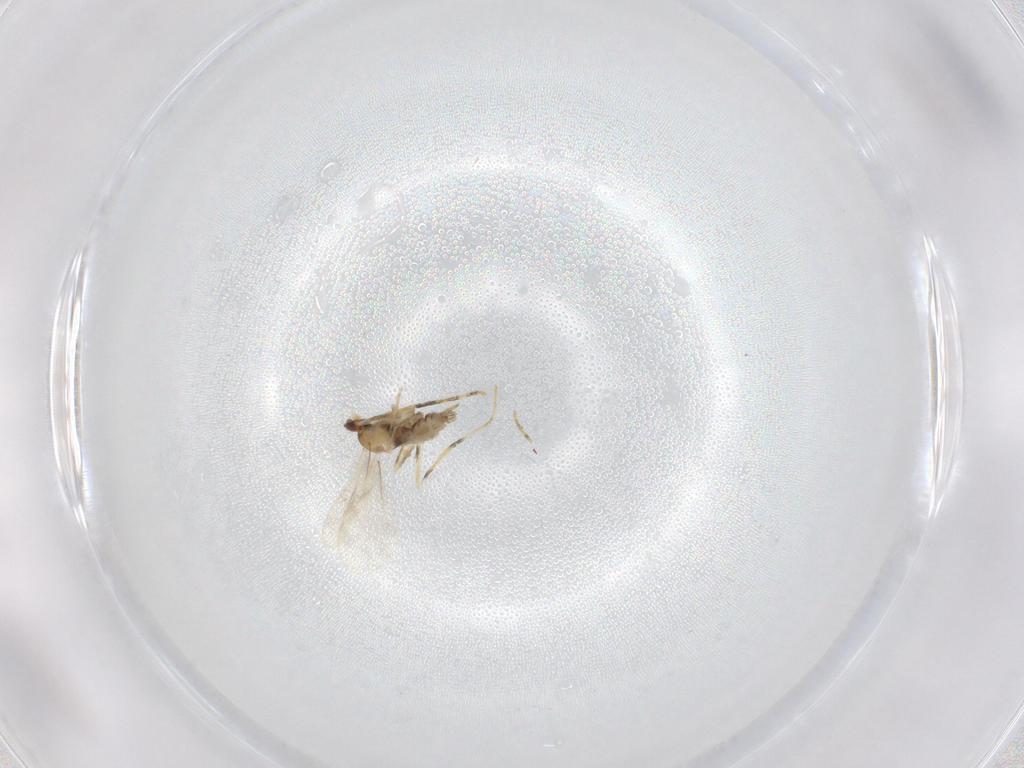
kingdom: Animalia
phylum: Arthropoda
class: Insecta
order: Diptera
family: Cecidomyiidae
